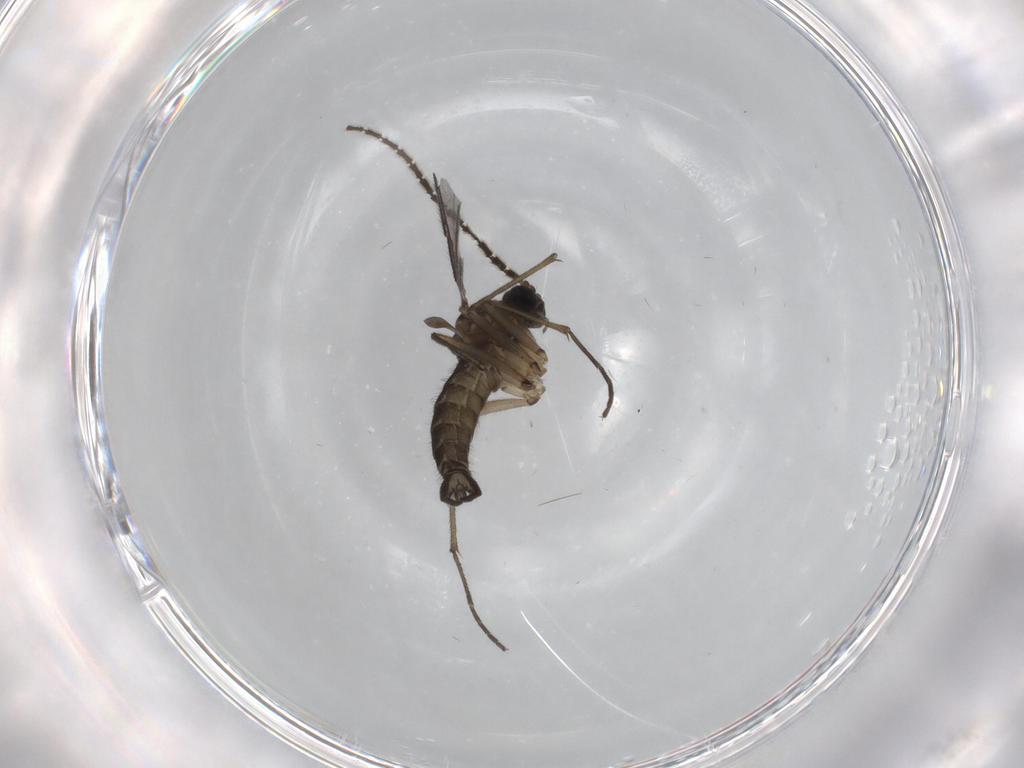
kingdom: Animalia
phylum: Arthropoda
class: Insecta
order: Diptera
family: Sciaridae
